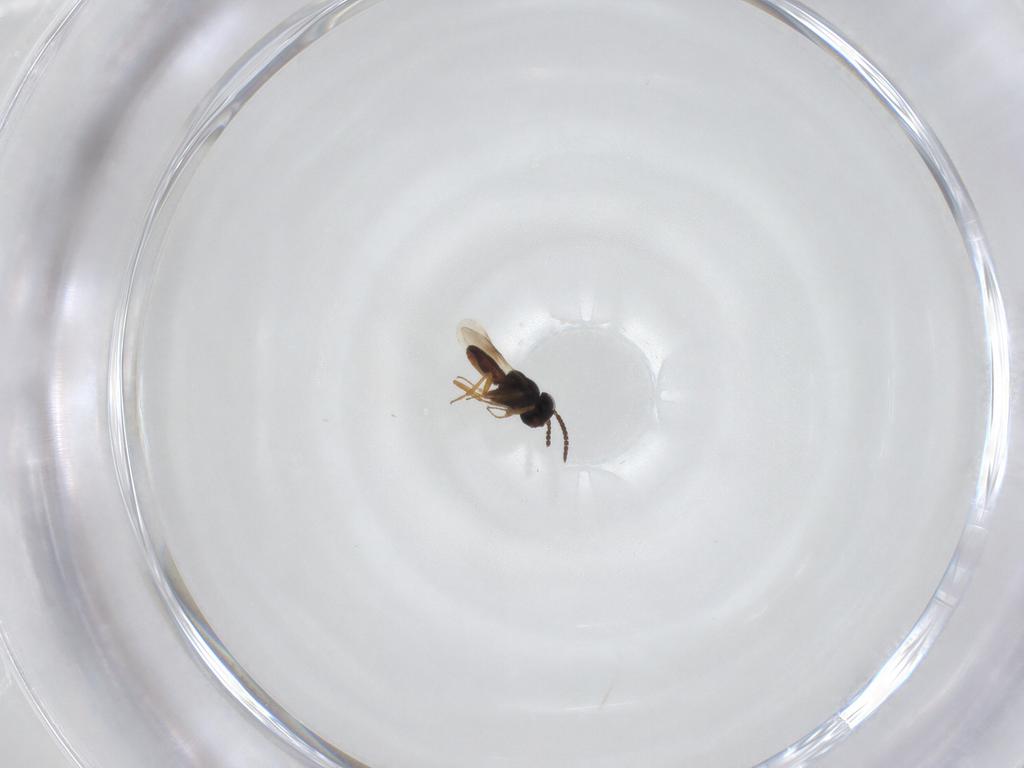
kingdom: Animalia
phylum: Arthropoda
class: Insecta
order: Hymenoptera
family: Scelionidae
